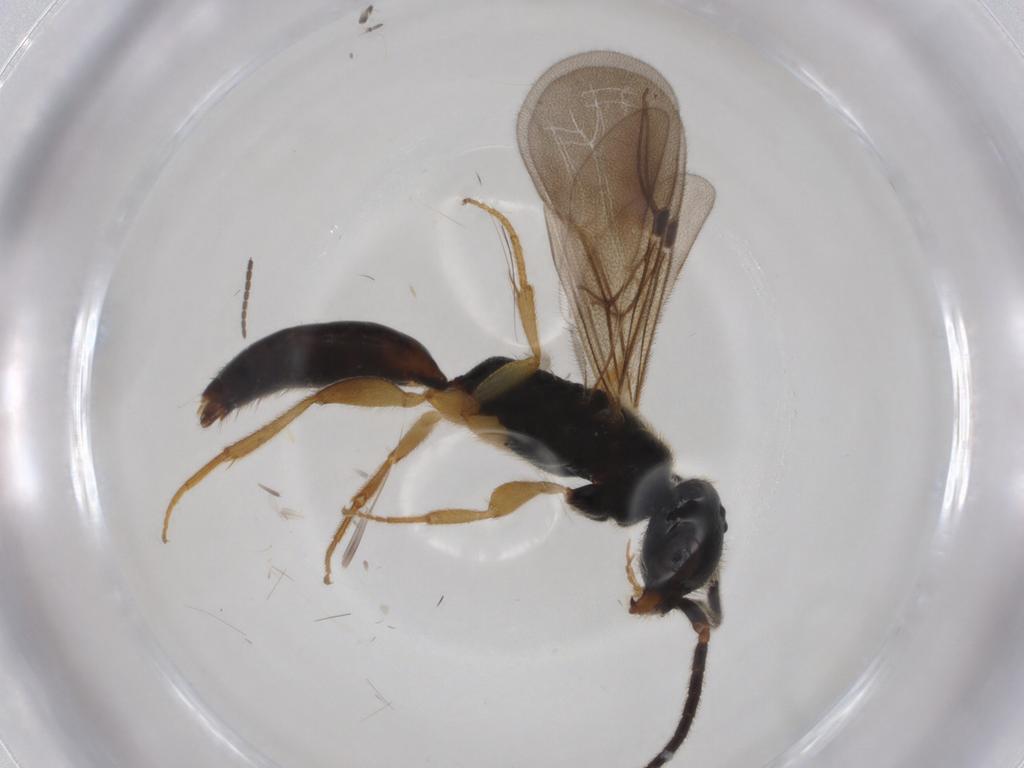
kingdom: Animalia
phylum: Arthropoda
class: Insecta
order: Hymenoptera
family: Bethylidae
